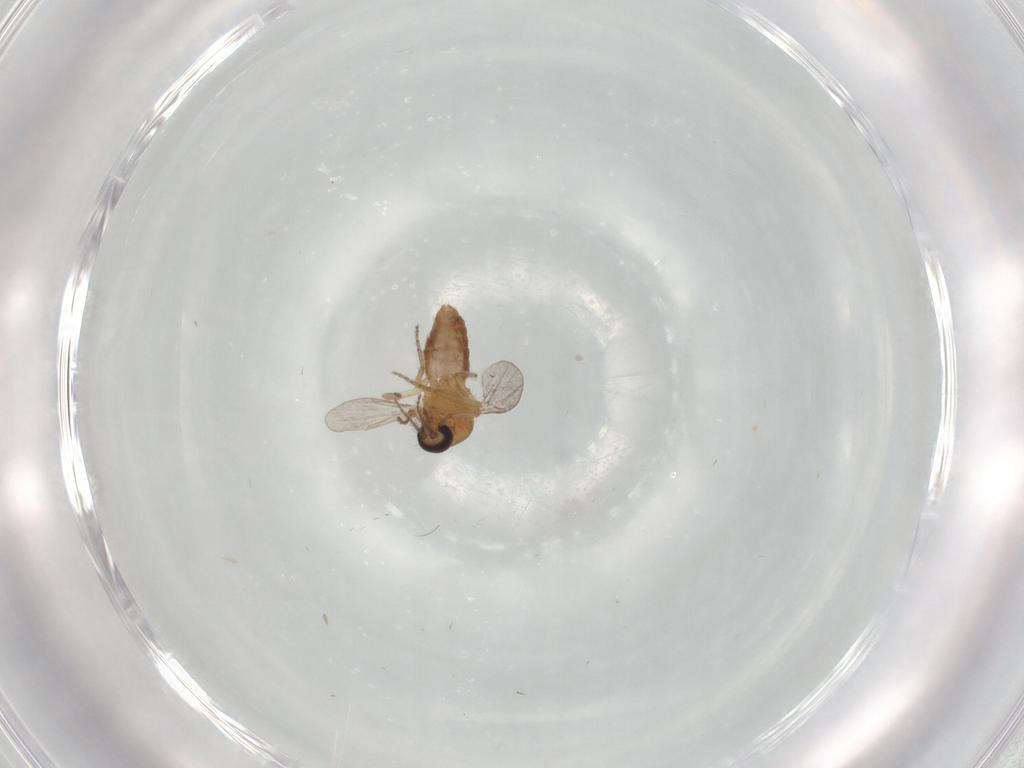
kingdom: Animalia
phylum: Arthropoda
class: Insecta
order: Diptera
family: Ceratopogonidae
